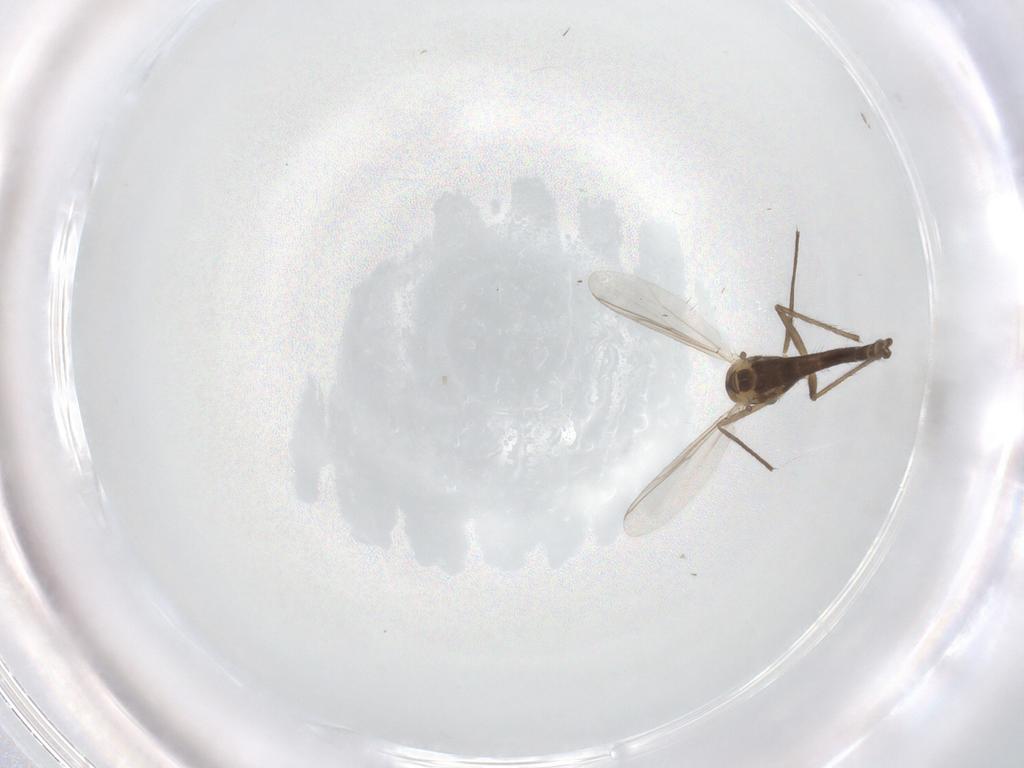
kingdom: Animalia
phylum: Arthropoda
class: Insecta
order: Diptera
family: Chironomidae
